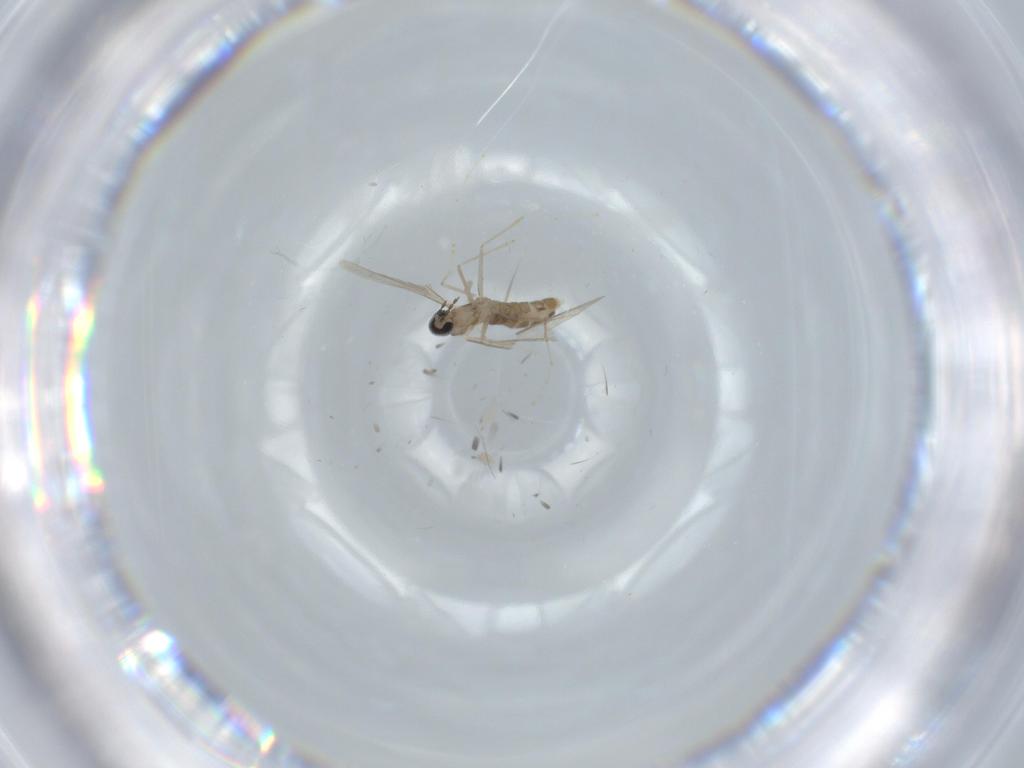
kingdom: Animalia
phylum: Arthropoda
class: Insecta
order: Diptera
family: Cecidomyiidae
